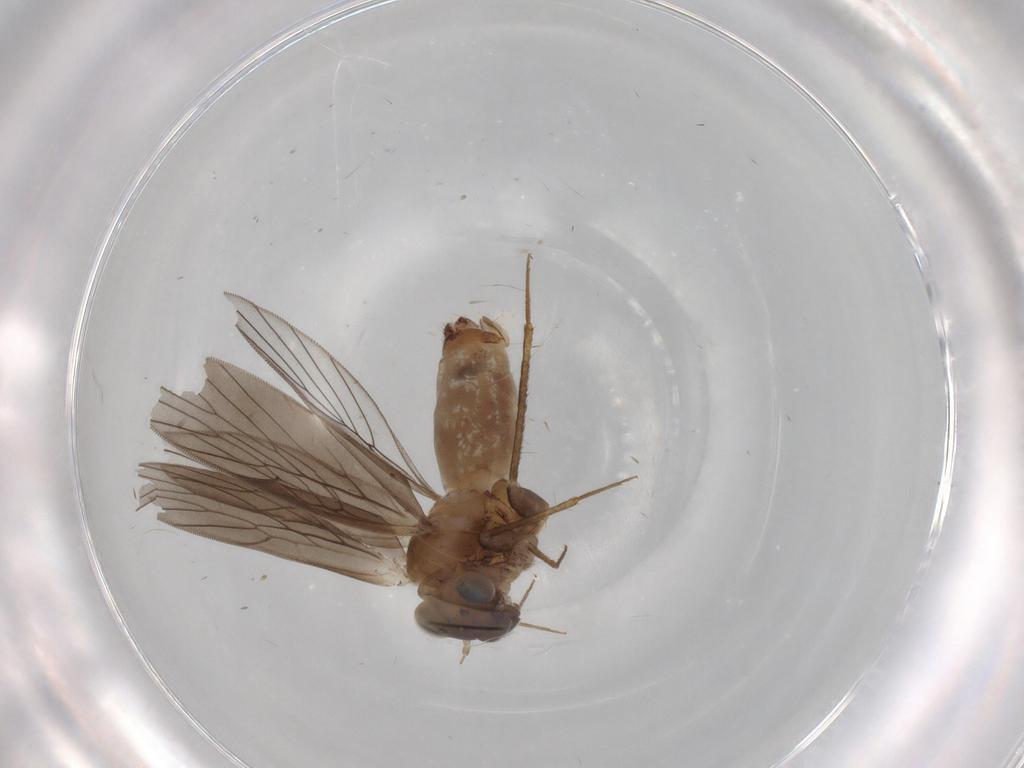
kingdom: Animalia
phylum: Arthropoda
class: Insecta
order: Psocodea
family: Lepidopsocidae
